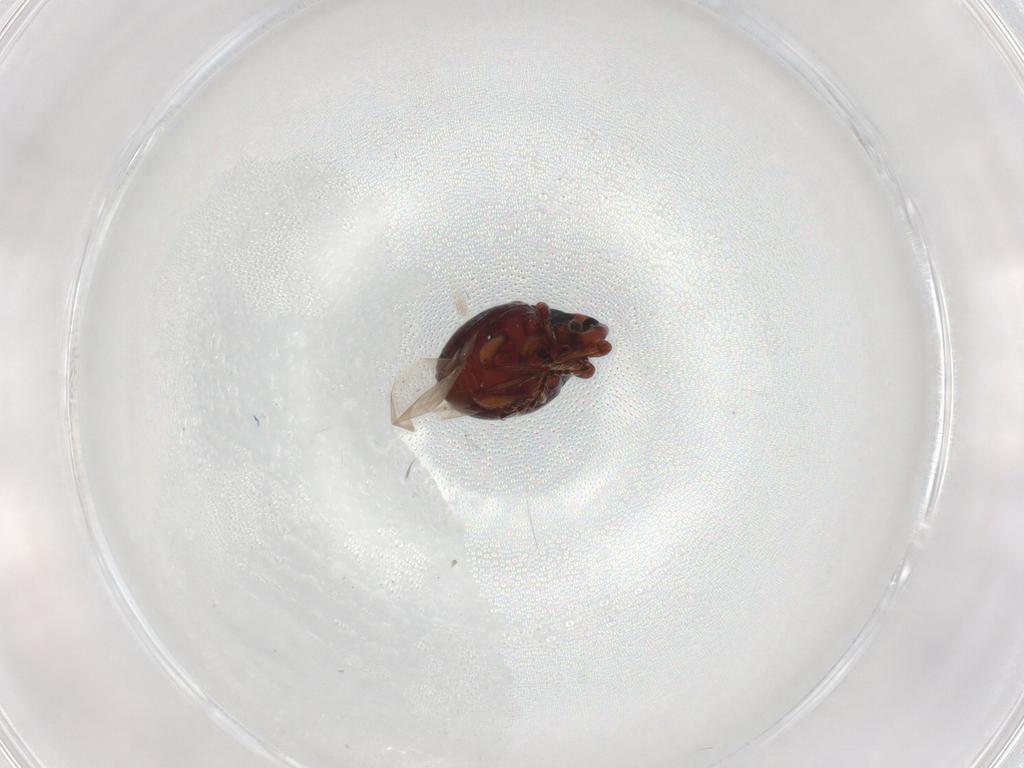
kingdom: Animalia
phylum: Arthropoda
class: Insecta
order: Coleoptera
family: Curculionidae
